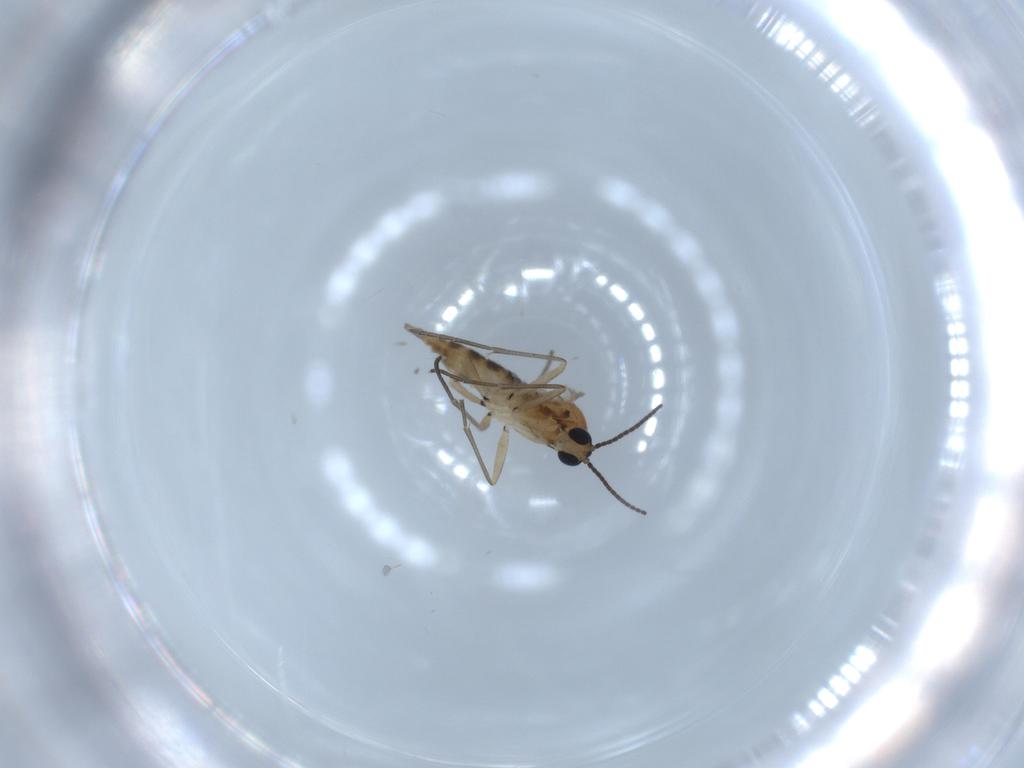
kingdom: Animalia
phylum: Arthropoda
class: Insecta
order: Diptera
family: Chironomidae
